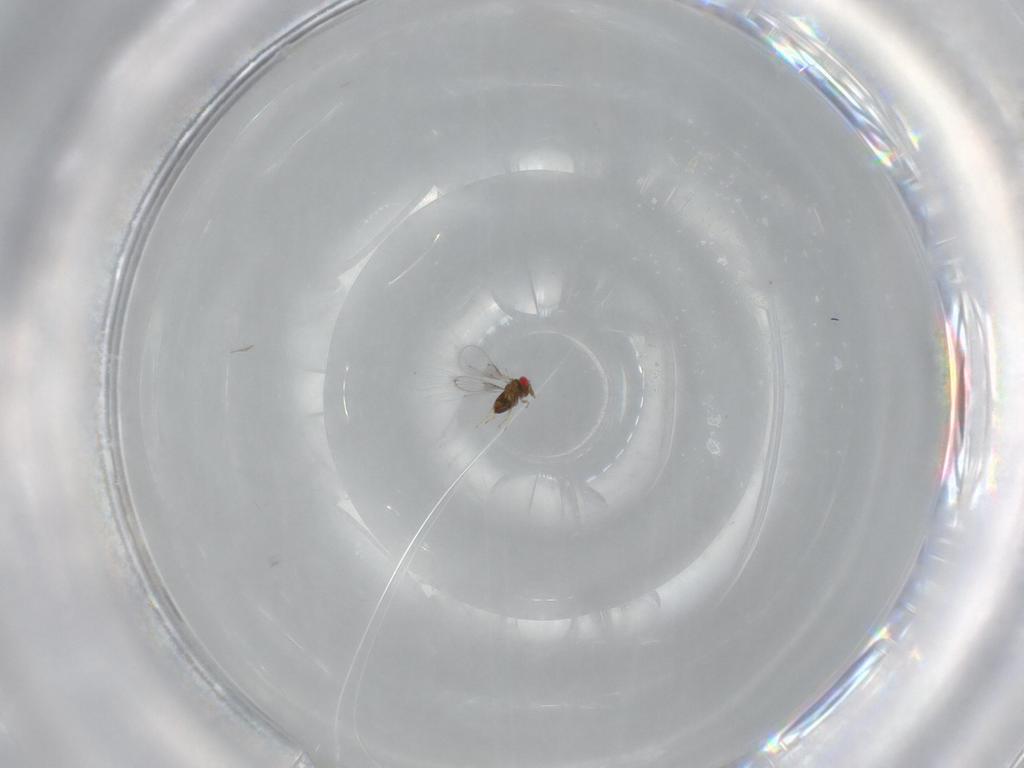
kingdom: Animalia
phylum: Arthropoda
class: Insecta
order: Hymenoptera
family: Trichogrammatidae
